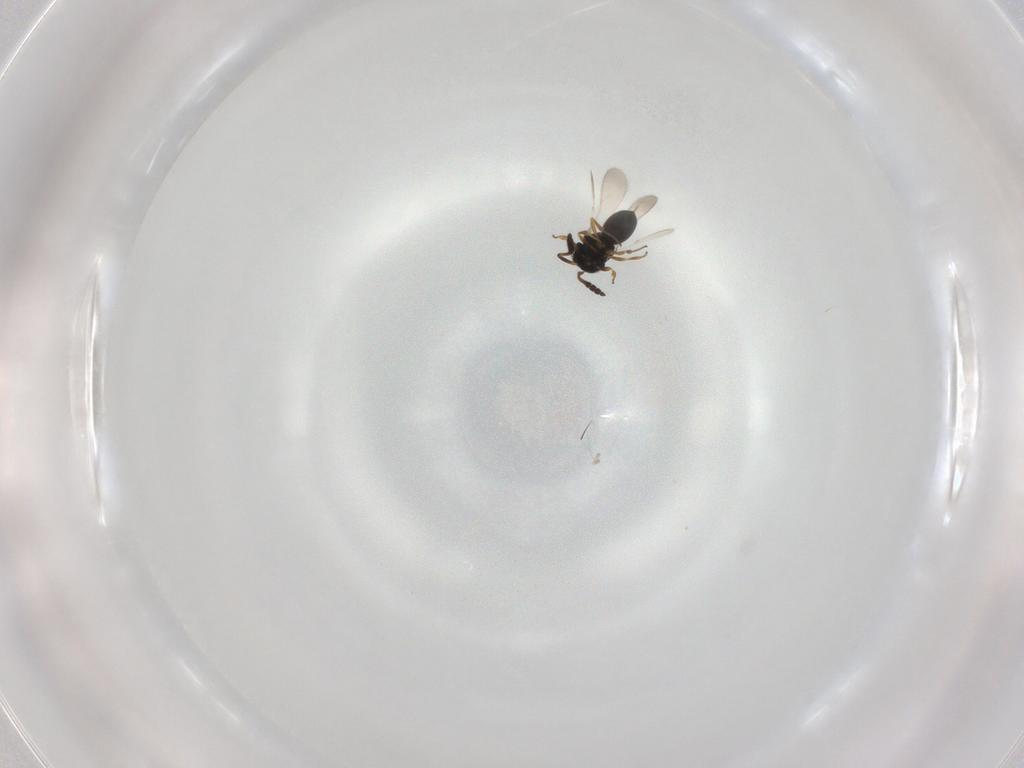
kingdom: Animalia
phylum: Arthropoda
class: Insecta
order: Hymenoptera
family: Scelionidae
